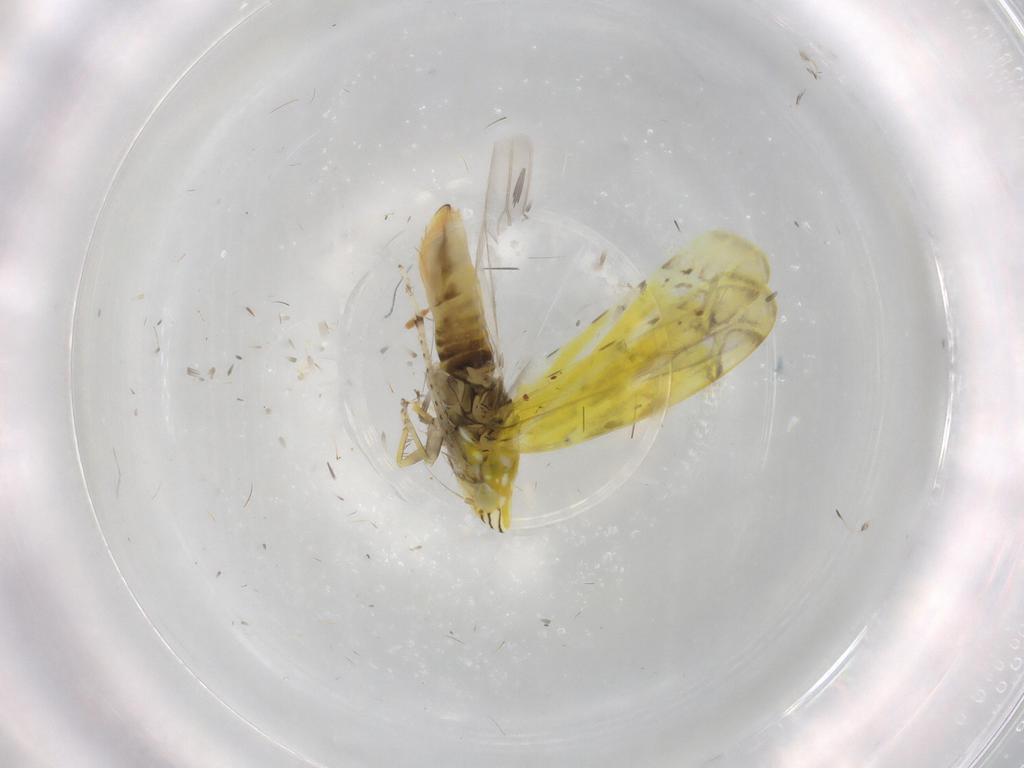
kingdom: Animalia
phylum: Arthropoda
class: Insecta
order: Hemiptera
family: Cicadellidae
